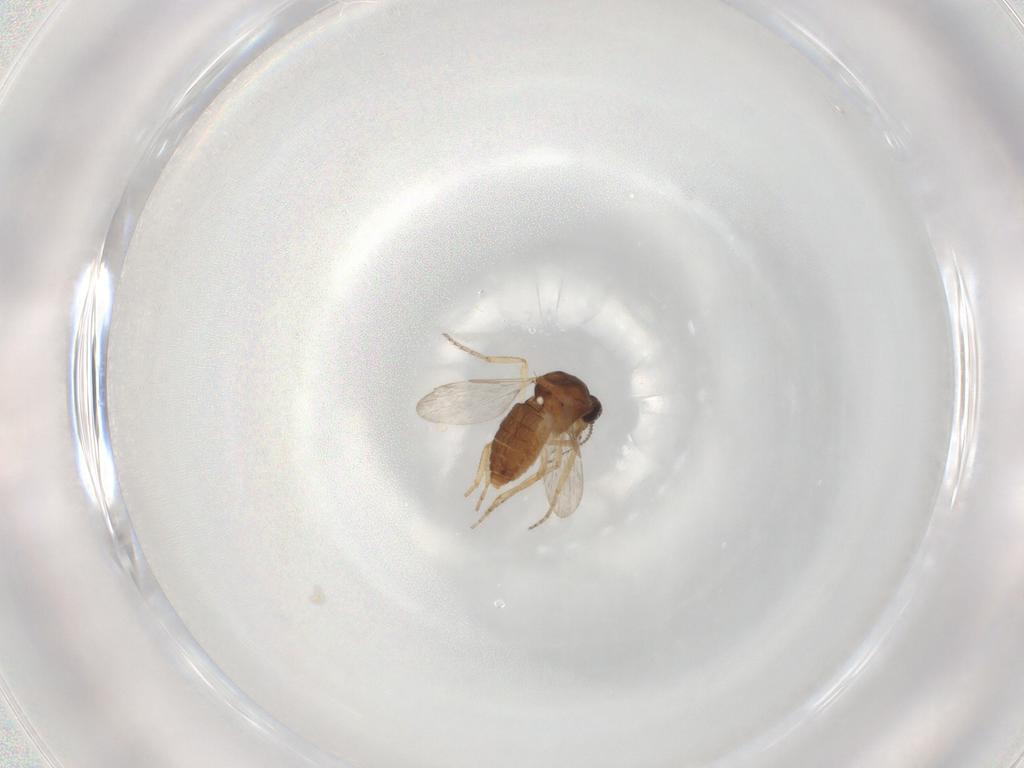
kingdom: Animalia
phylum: Arthropoda
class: Insecta
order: Diptera
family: Ceratopogonidae
